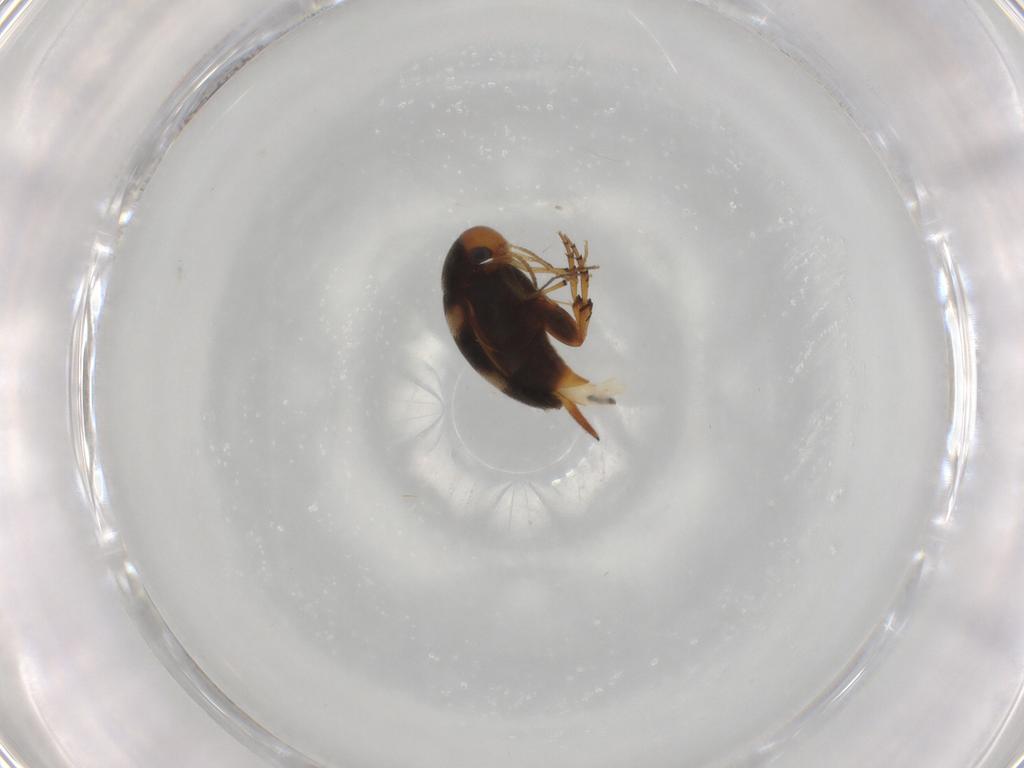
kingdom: Animalia
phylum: Arthropoda
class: Insecta
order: Coleoptera
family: Mordellidae
